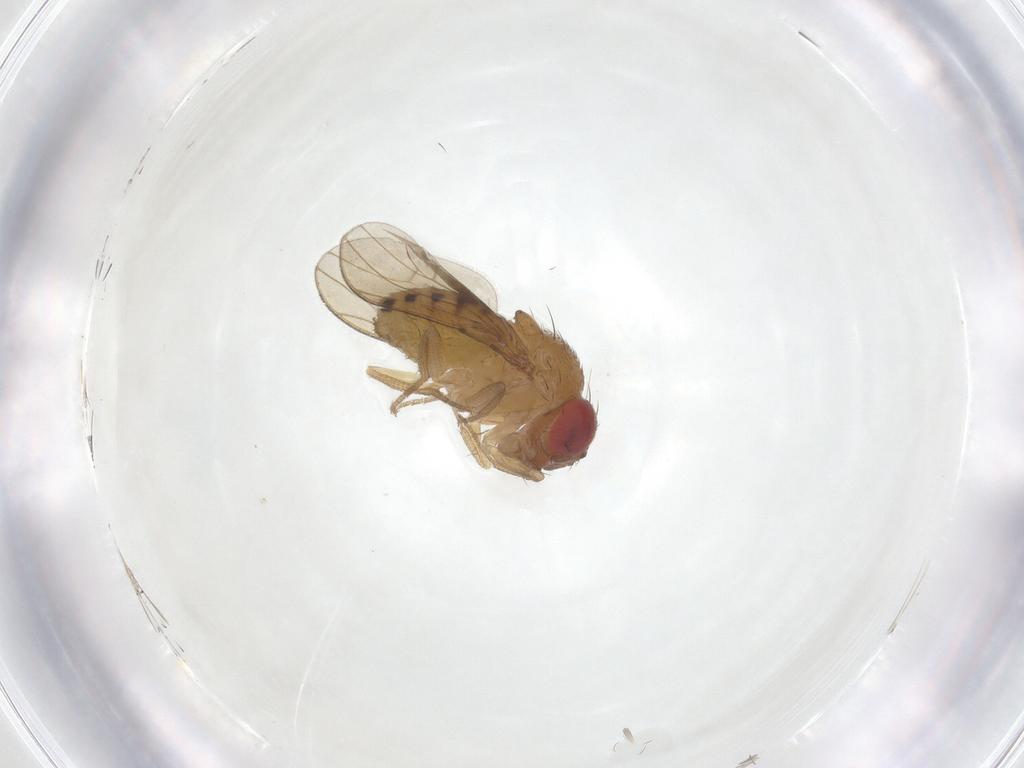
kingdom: Animalia
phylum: Arthropoda
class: Insecta
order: Diptera
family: Drosophilidae
